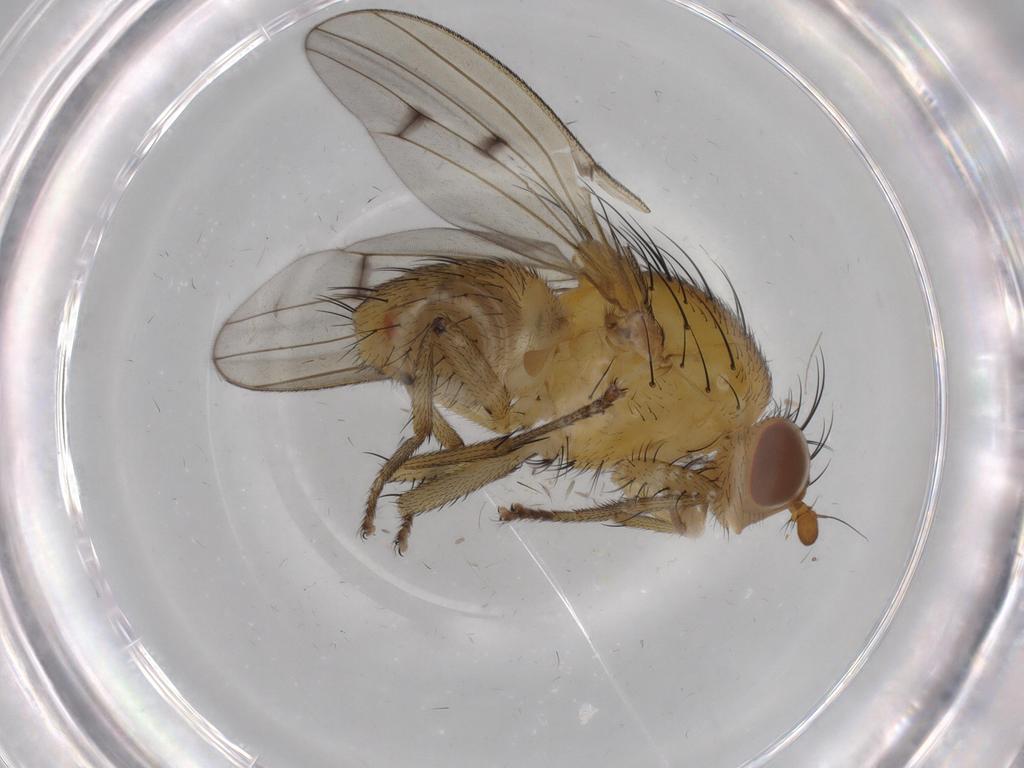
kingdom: Animalia
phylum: Arthropoda
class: Insecta
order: Diptera
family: Chironomidae
